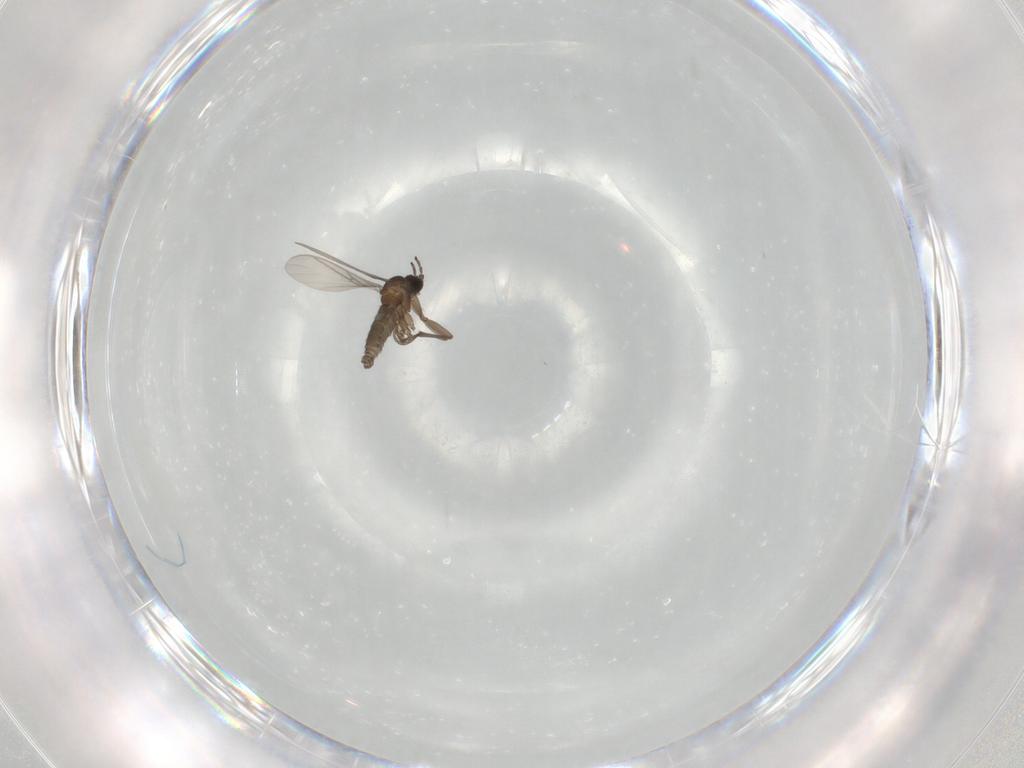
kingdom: Animalia
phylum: Arthropoda
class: Insecta
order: Diptera
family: Sciaridae
